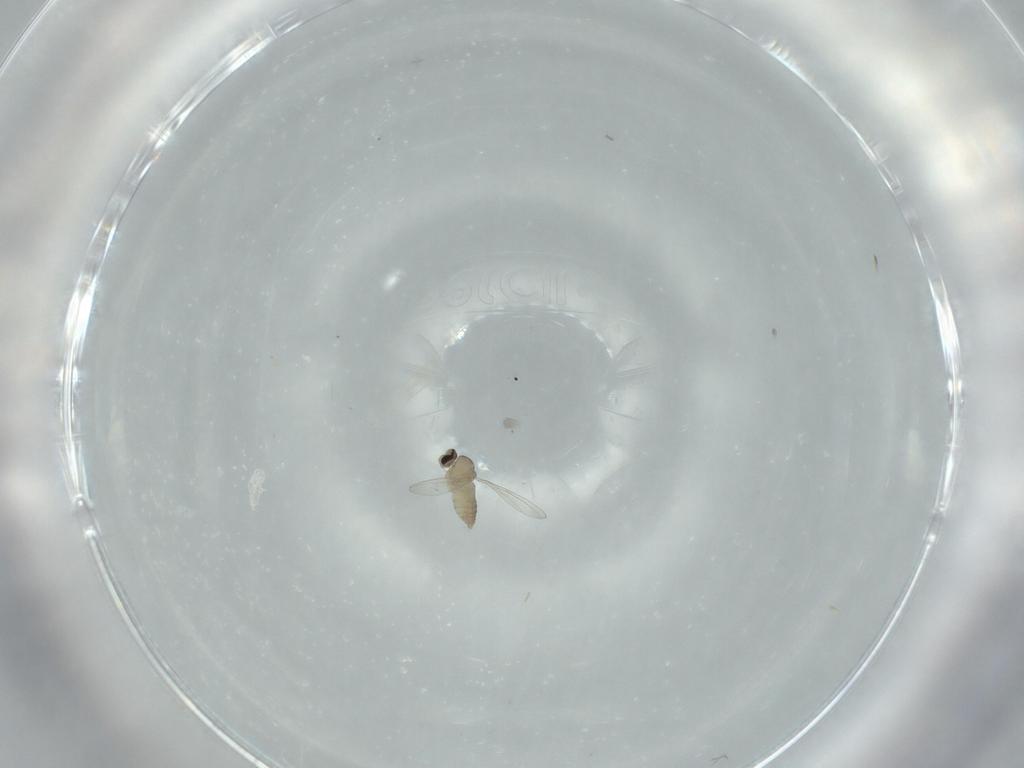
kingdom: Animalia
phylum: Arthropoda
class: Insecta
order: Diptera
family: Cecidomyiidae
